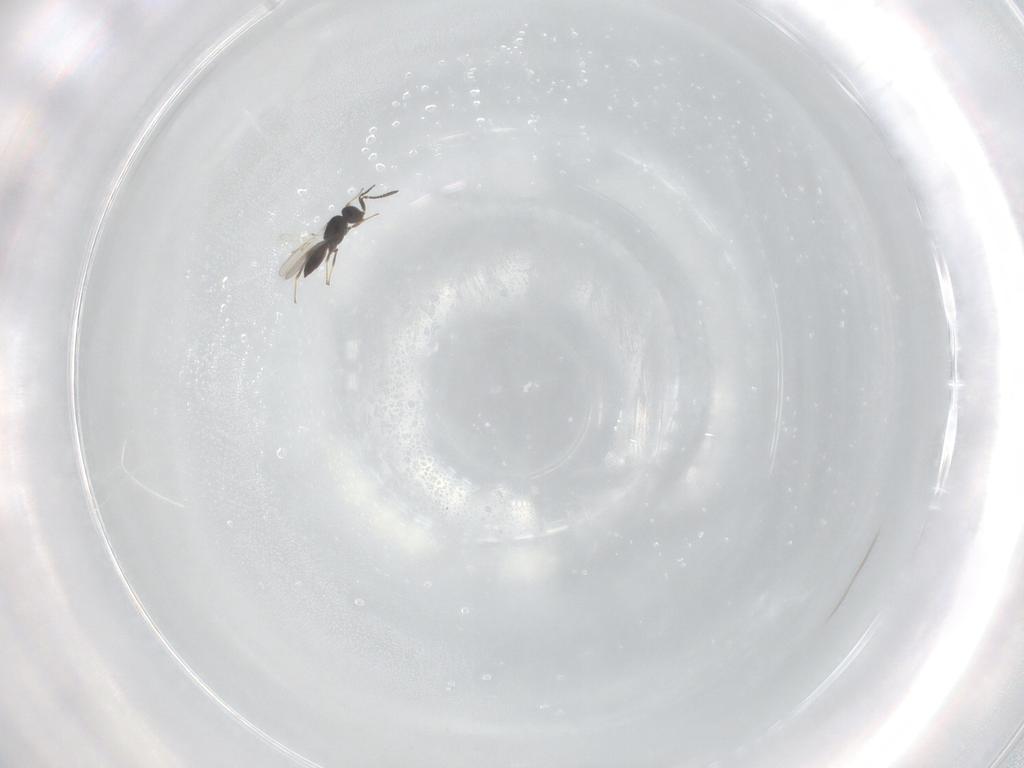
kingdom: Animalia
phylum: Arthropoda
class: Insecta
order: Hymenoptera
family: Scelionidae
